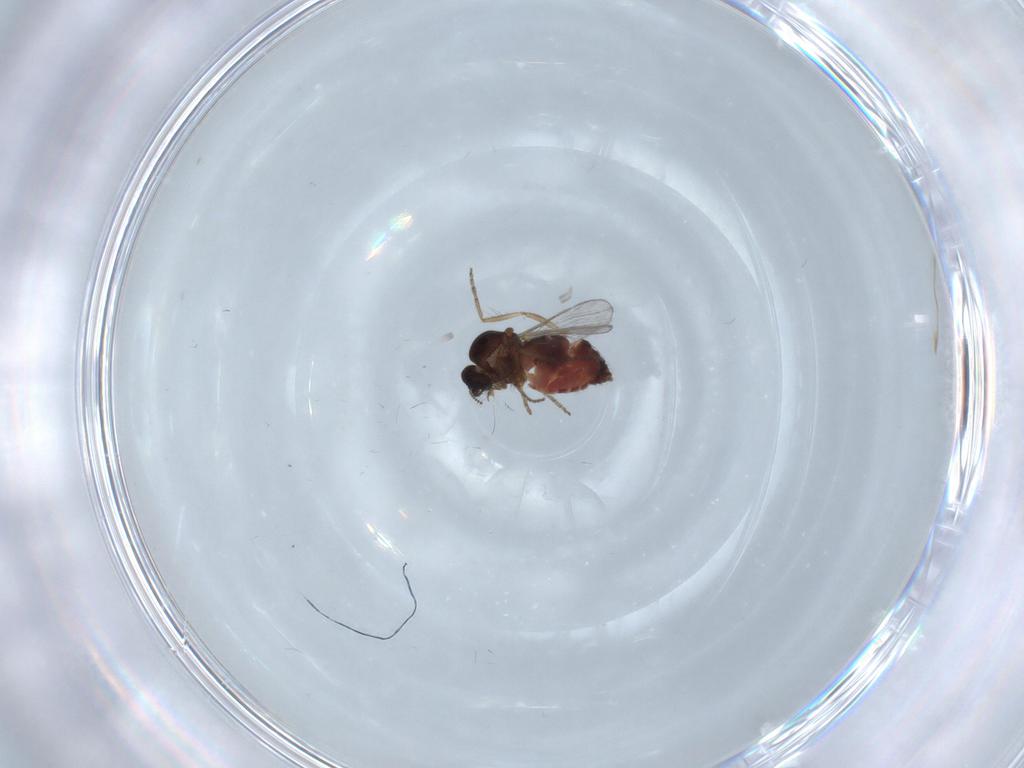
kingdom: Animalia
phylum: Arthropoda
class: Insecta
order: Diptera
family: Ceratopogonidae
